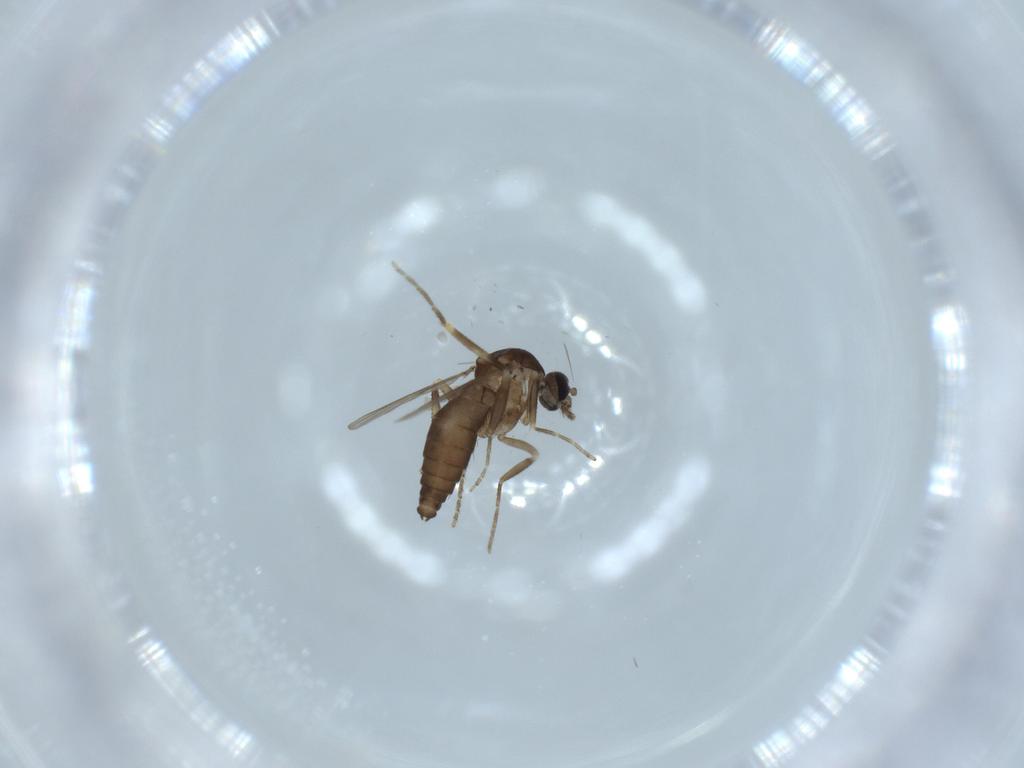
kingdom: Animalia
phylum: Arthropoda
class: Insecta
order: Diptera
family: Ceratopogonidae
